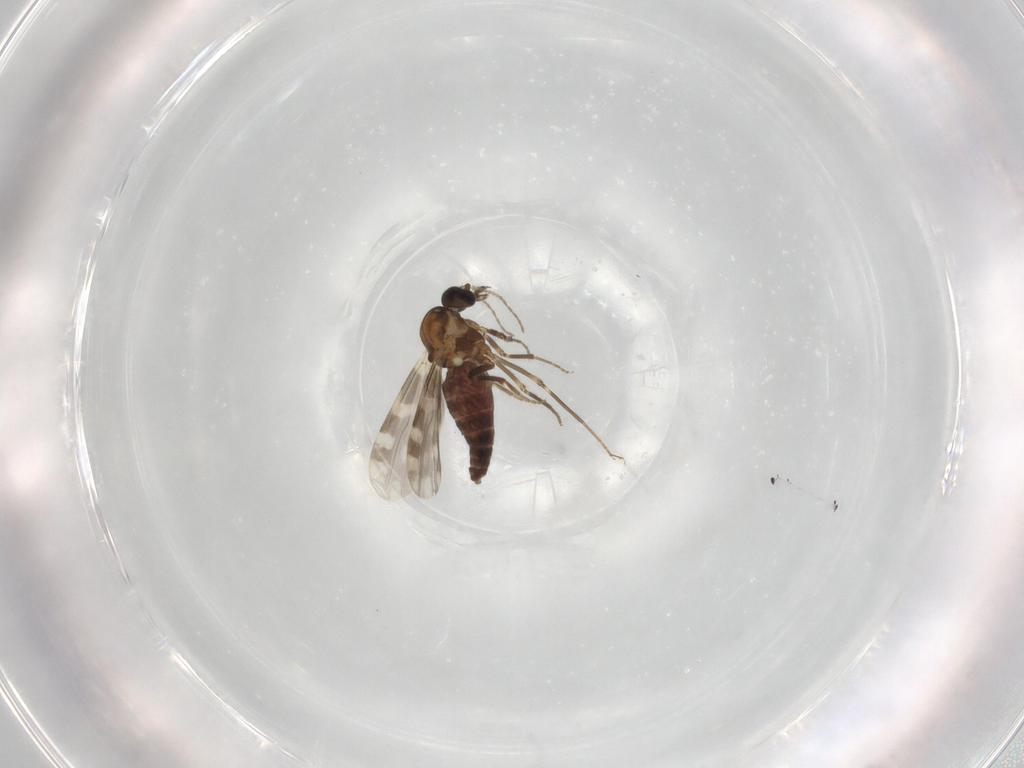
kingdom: Animalia
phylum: Arthropoda
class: Insecta
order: Diptera
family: Ceratopogonidae
